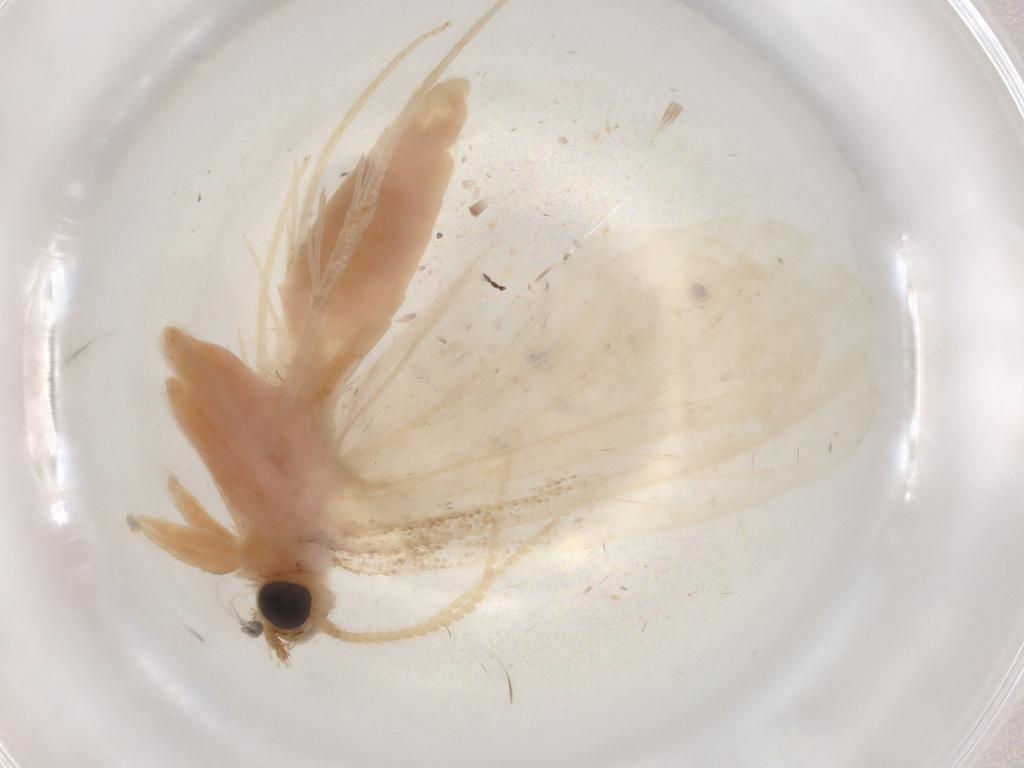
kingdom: Animalia
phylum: Arthropoda
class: Insecta
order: Lepidoptera
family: Crambidae
